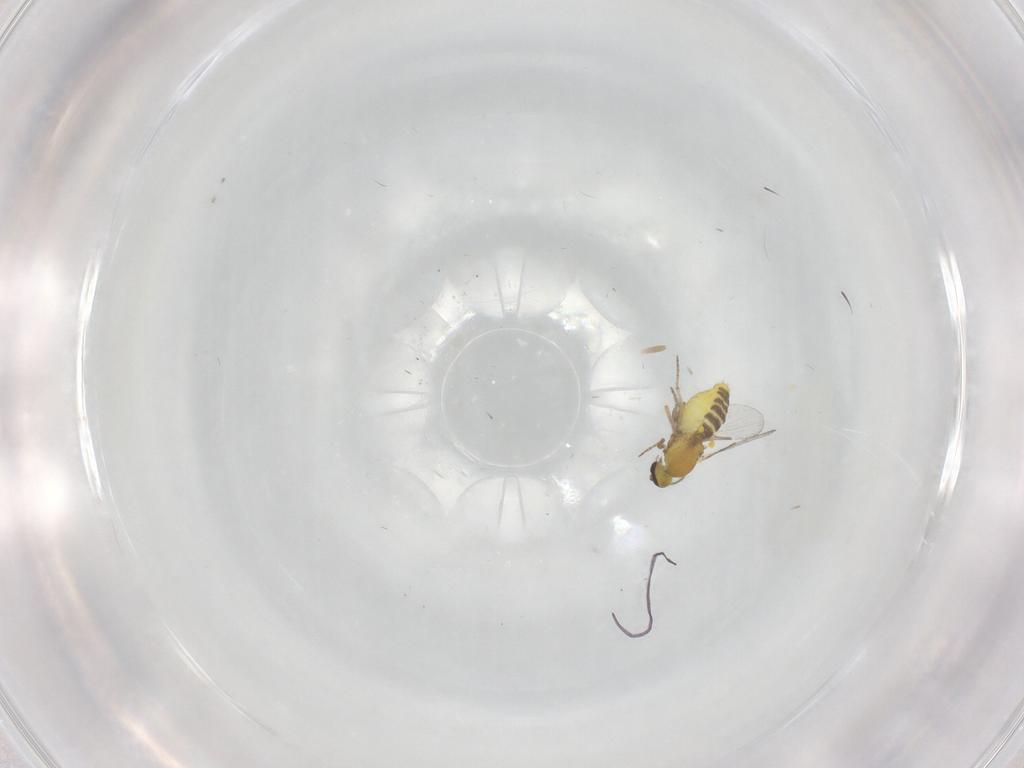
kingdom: Animalia
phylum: Arthropoda
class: Insecta
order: Diptera
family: Ceratopogonidae
